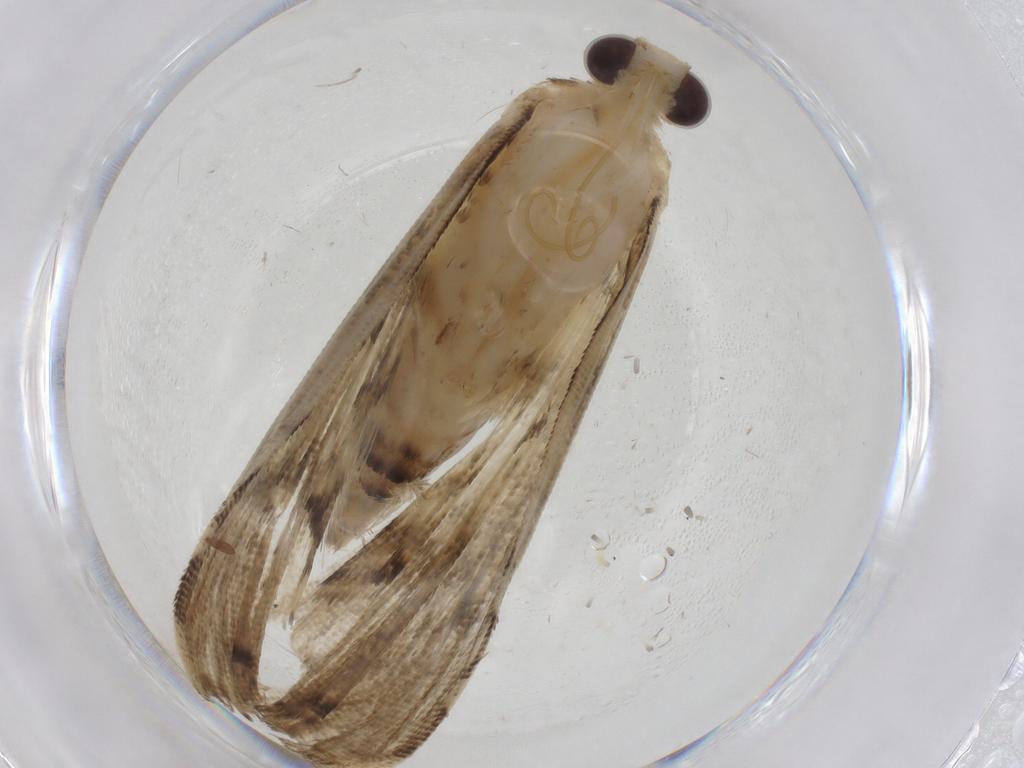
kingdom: Animalia
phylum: Arthropoda
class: Insecta
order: Lepidoptera
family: Crambidae
